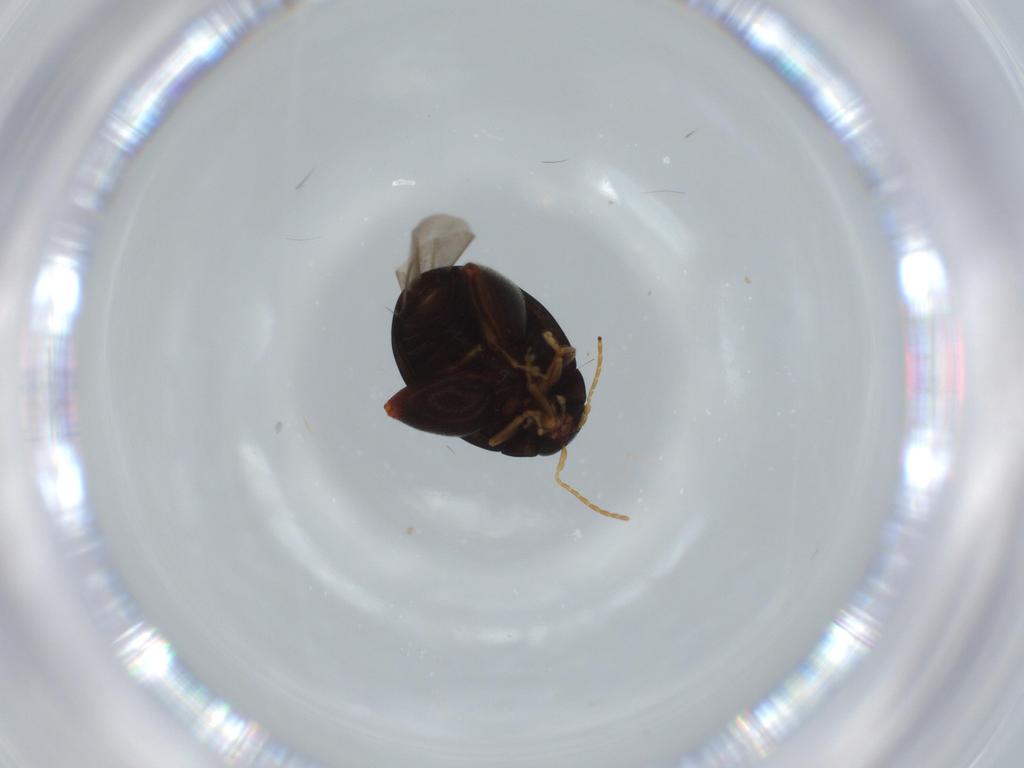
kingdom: Animalia
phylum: Arthropoda
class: Insecta
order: Coleoptera
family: Chrysomelidae
